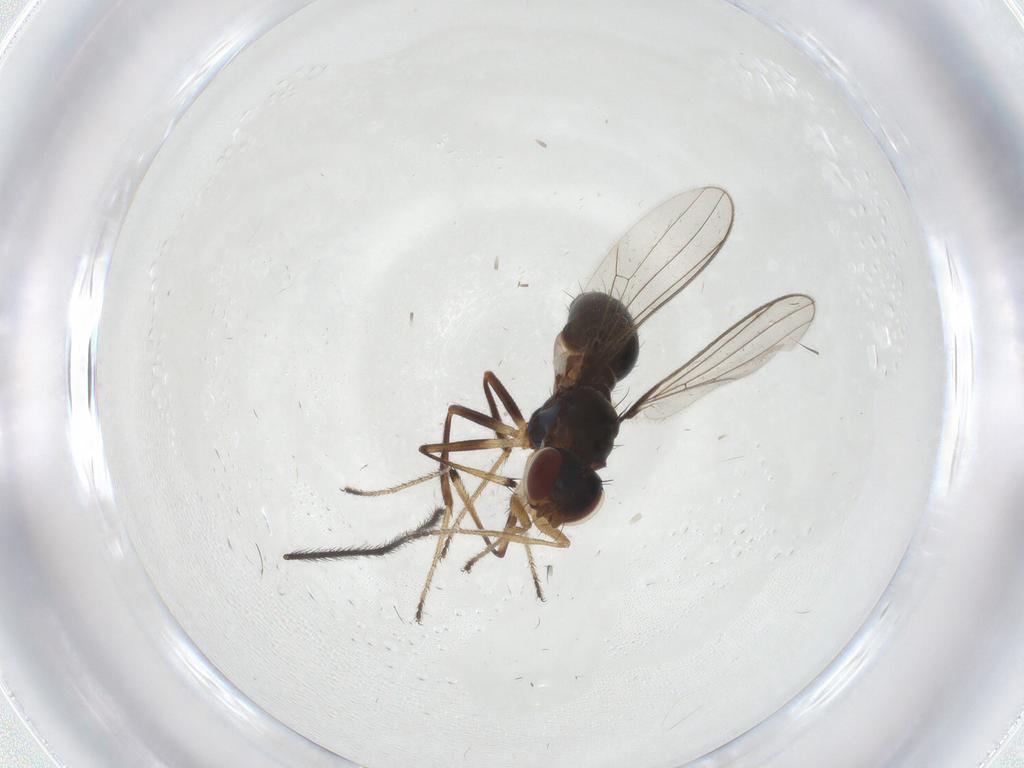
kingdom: Animalia
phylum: Arthropoda
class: Insecta
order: Diptera
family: Sepsidae
